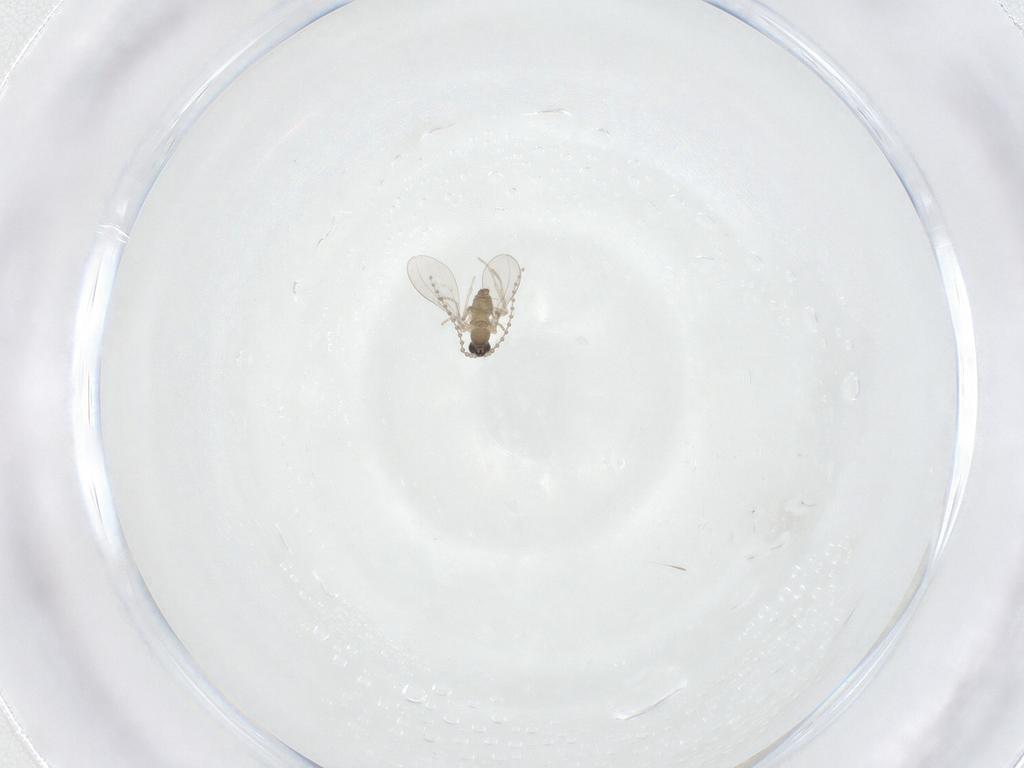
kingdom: Animalia
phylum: Arthropoda
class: Insecta
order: Diptera
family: Cecidomyiidae
